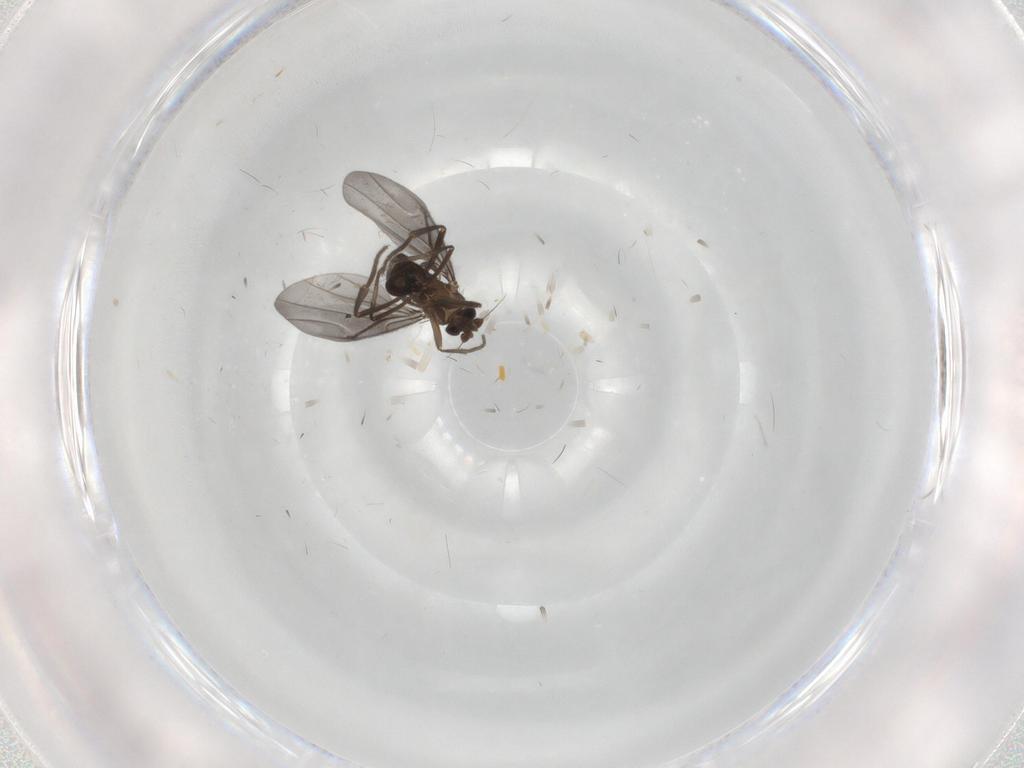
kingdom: Animalia
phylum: Arthropoda
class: Insecta
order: Diptera
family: Phoridae
